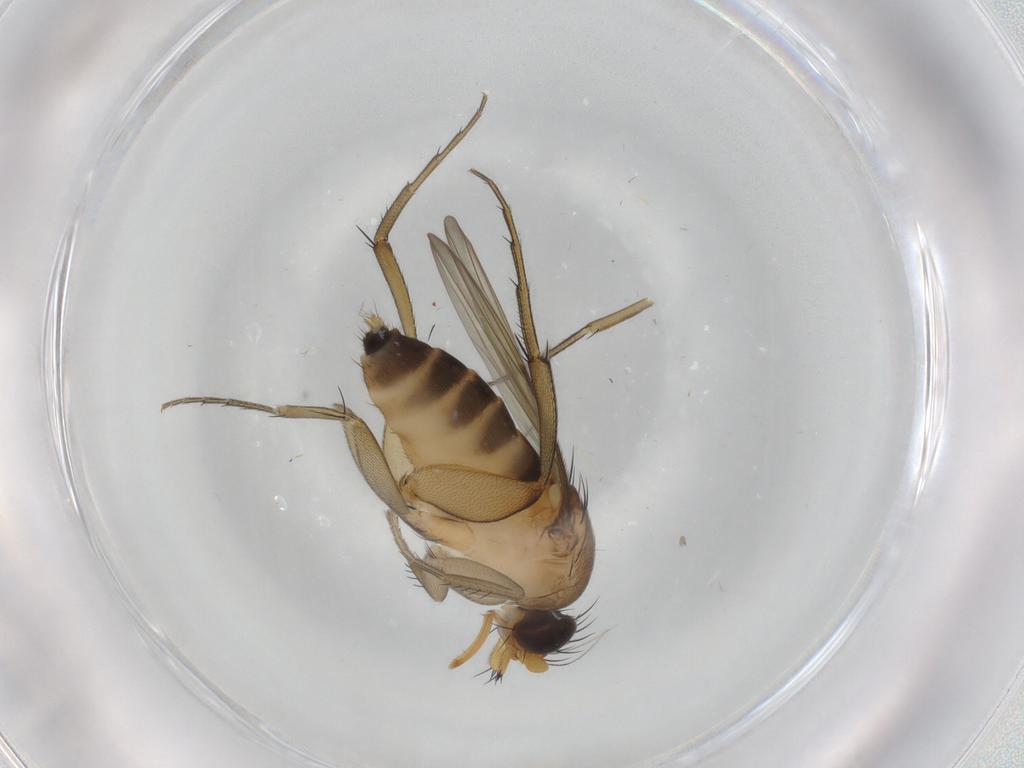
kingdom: Animalia
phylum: Arthropoda
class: Insecta
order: Diptera
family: Phoridae
